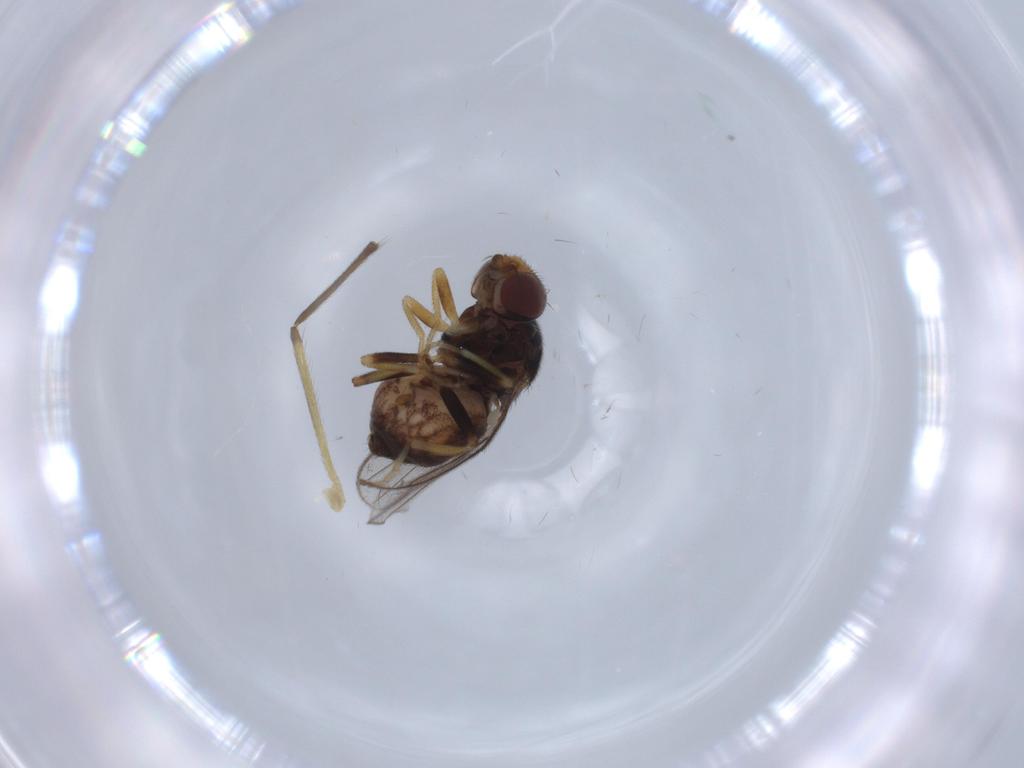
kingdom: Animalia
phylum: Arthropoda
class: Insecta
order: Diptera
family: Chloropidae
